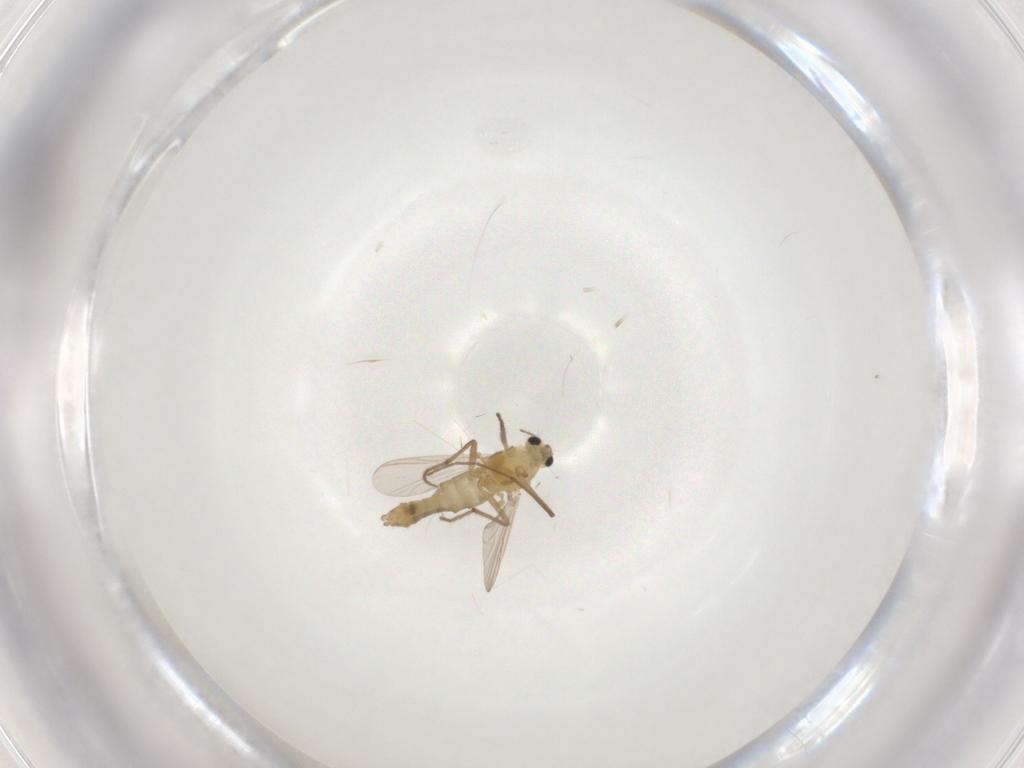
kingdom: Animalia
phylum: Arthropoda
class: Insecta
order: Diptera
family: Chironomidae
